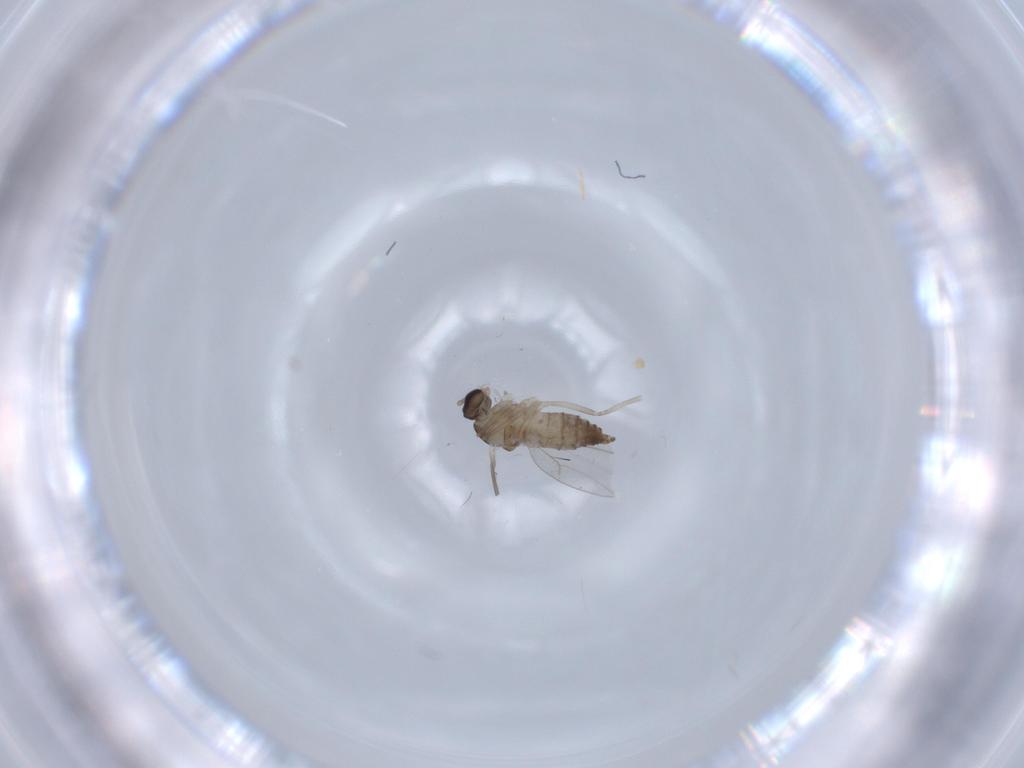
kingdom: Animalia
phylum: Arthropoda
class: Insecta
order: Diptera
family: Cecidomyiidae
